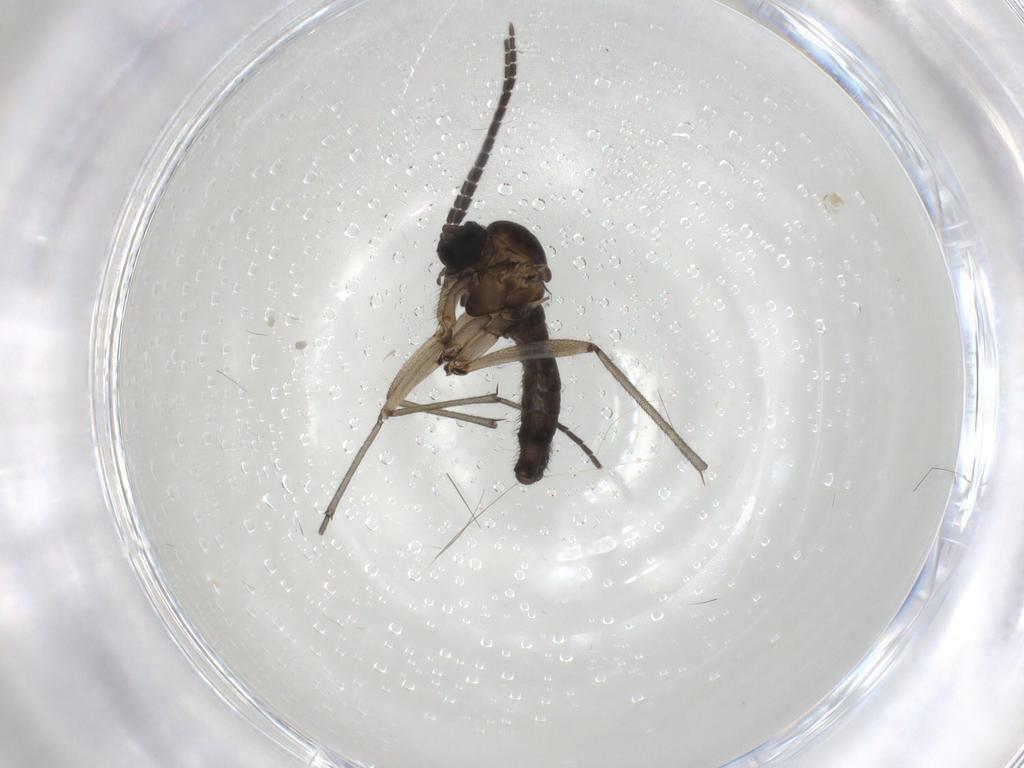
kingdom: Animalia
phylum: Arthropoda
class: Insecta
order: Diptera
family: Sciaridae
